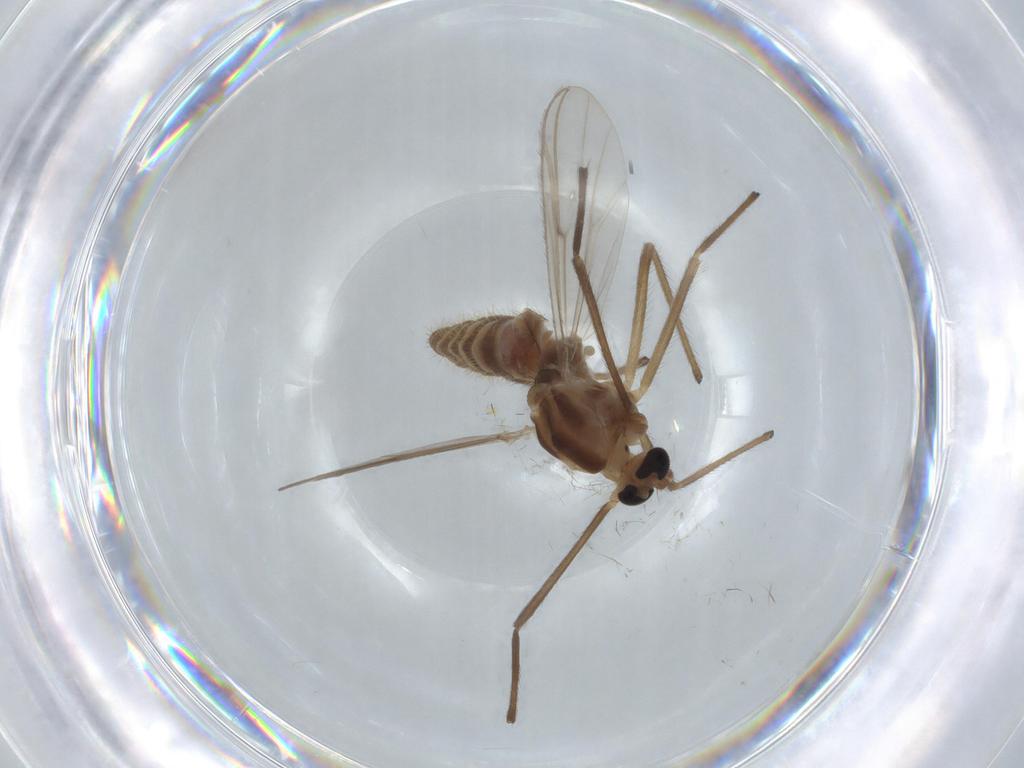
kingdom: Animalia
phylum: Arthropoda
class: Insecta
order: Diptera
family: Chironomidae
